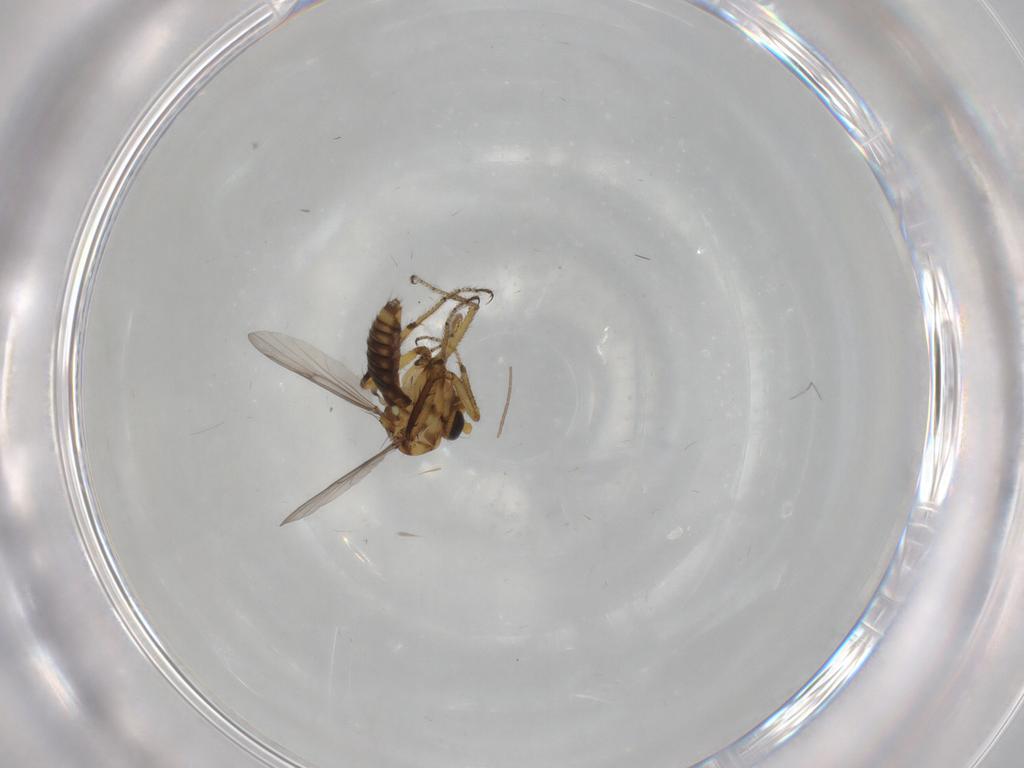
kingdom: Animalia
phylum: Arthropoda
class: Insecta
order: Diptera
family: Ceratopogonidae
